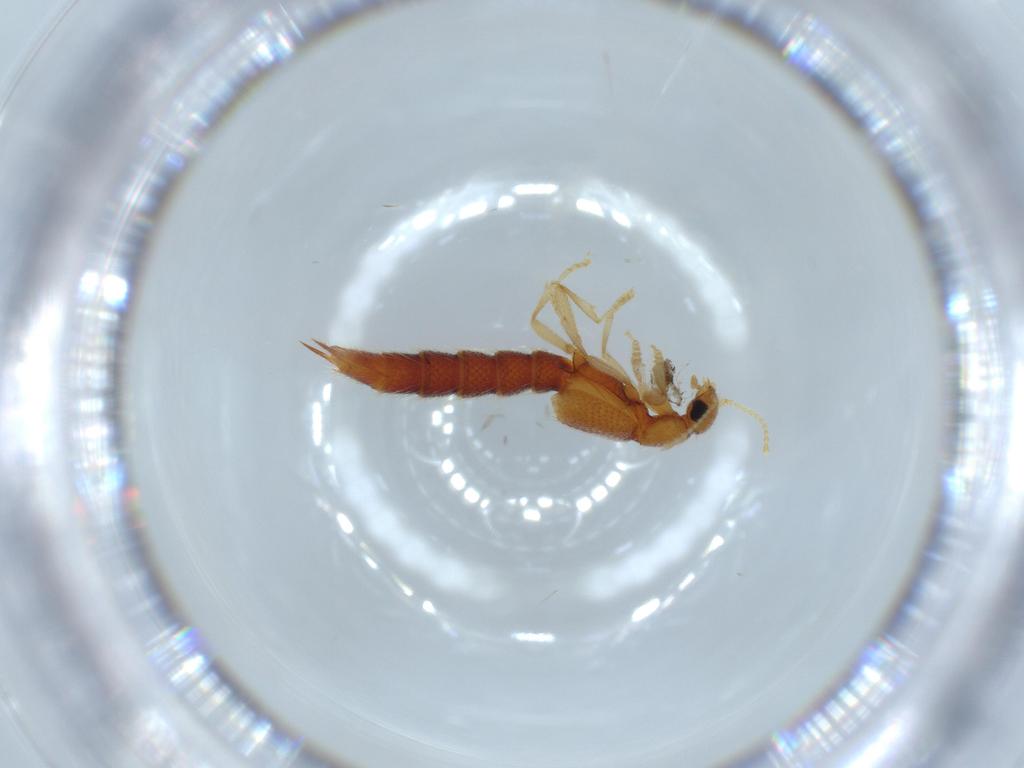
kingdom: Animalia
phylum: Arthropoda
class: Insecta
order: Coleoptera
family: Staphylinidae
